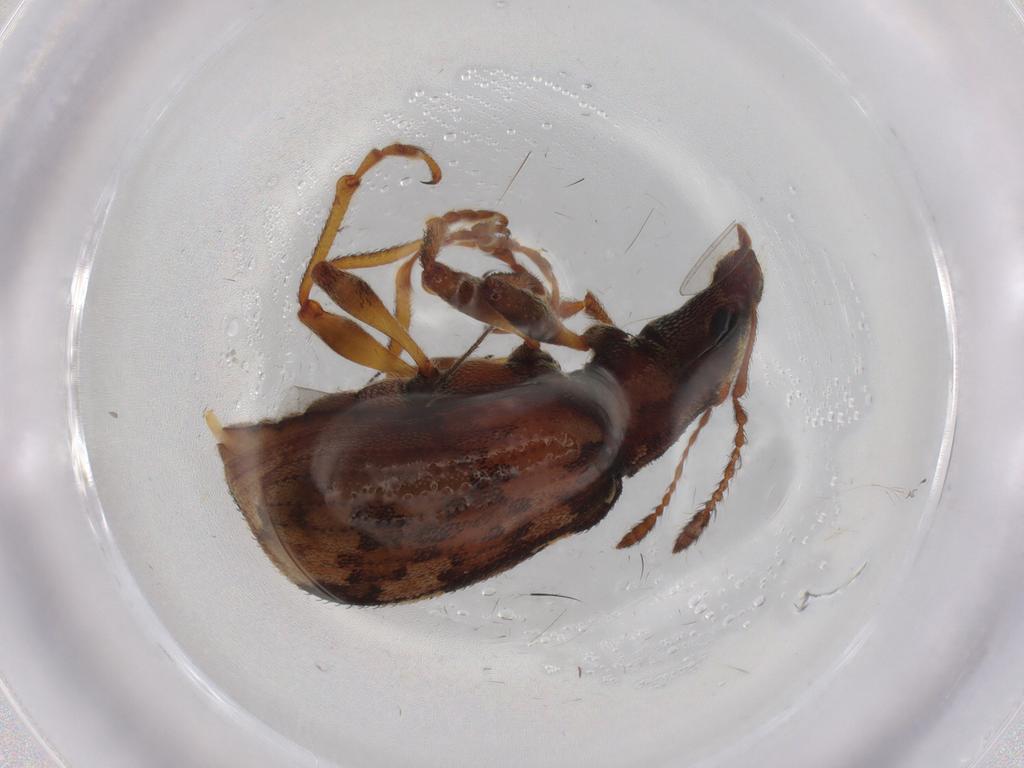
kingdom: Animalia
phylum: Arthropoda
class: Insecta
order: Coleoptera
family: Curculionidae
